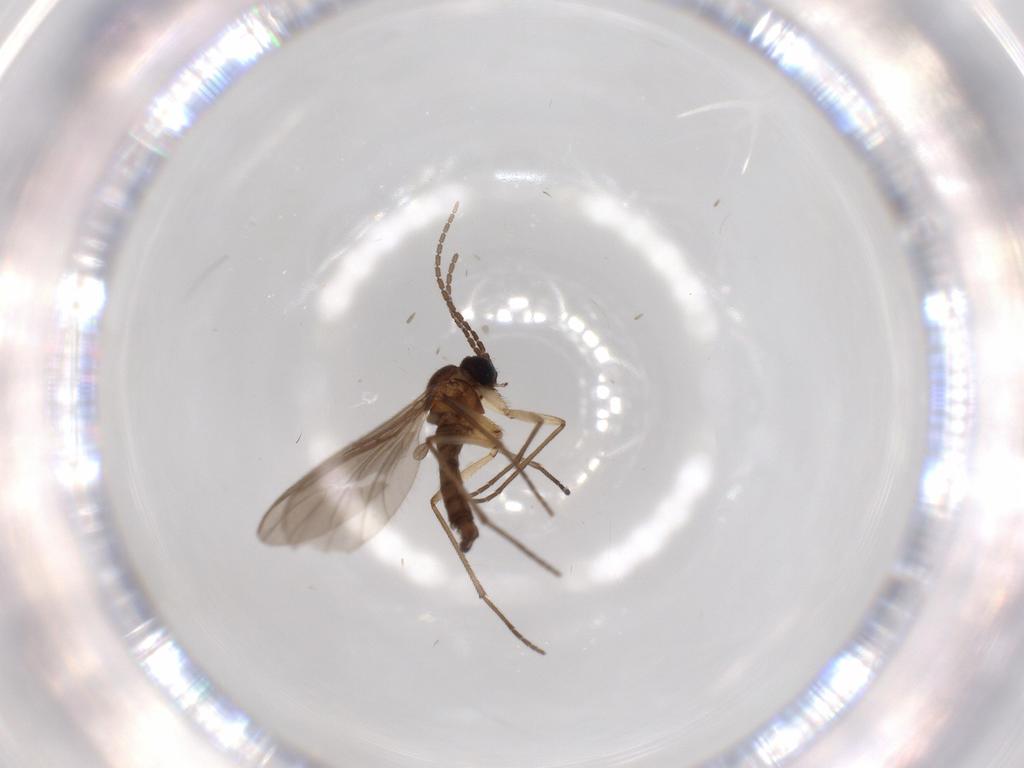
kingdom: Animalia
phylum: Arthropoda
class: Insecta
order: Diptera
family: Sciaridae
